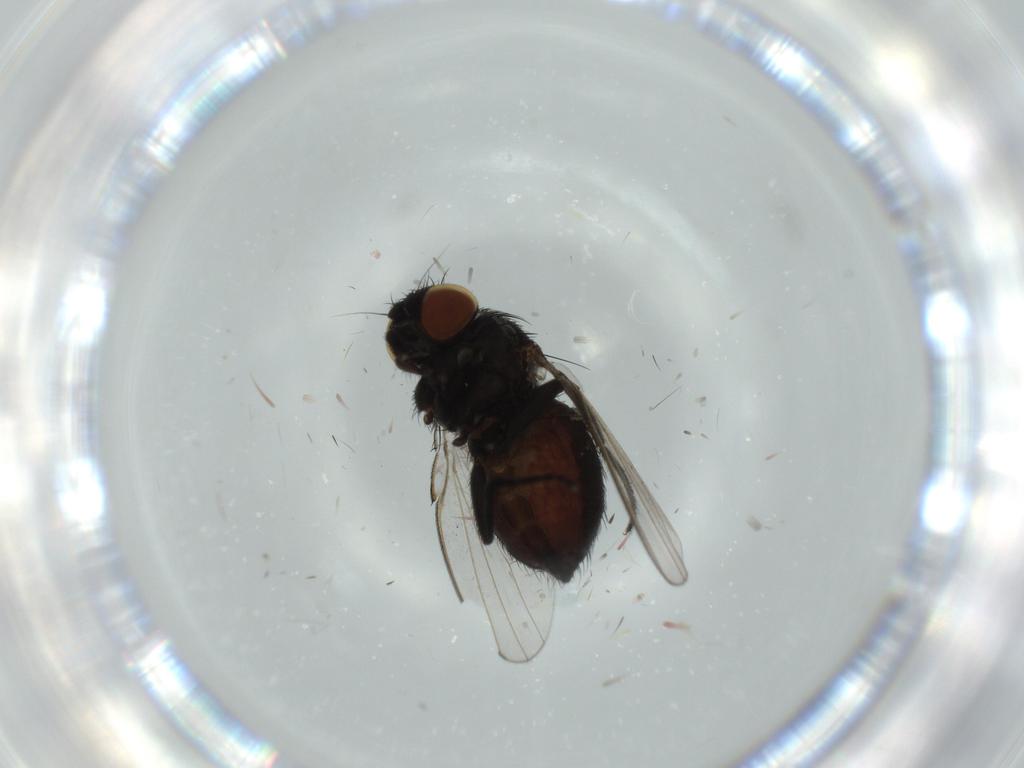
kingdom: Animalia
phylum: Arthropoda
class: Insecta
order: Diptera
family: Milichiidae
